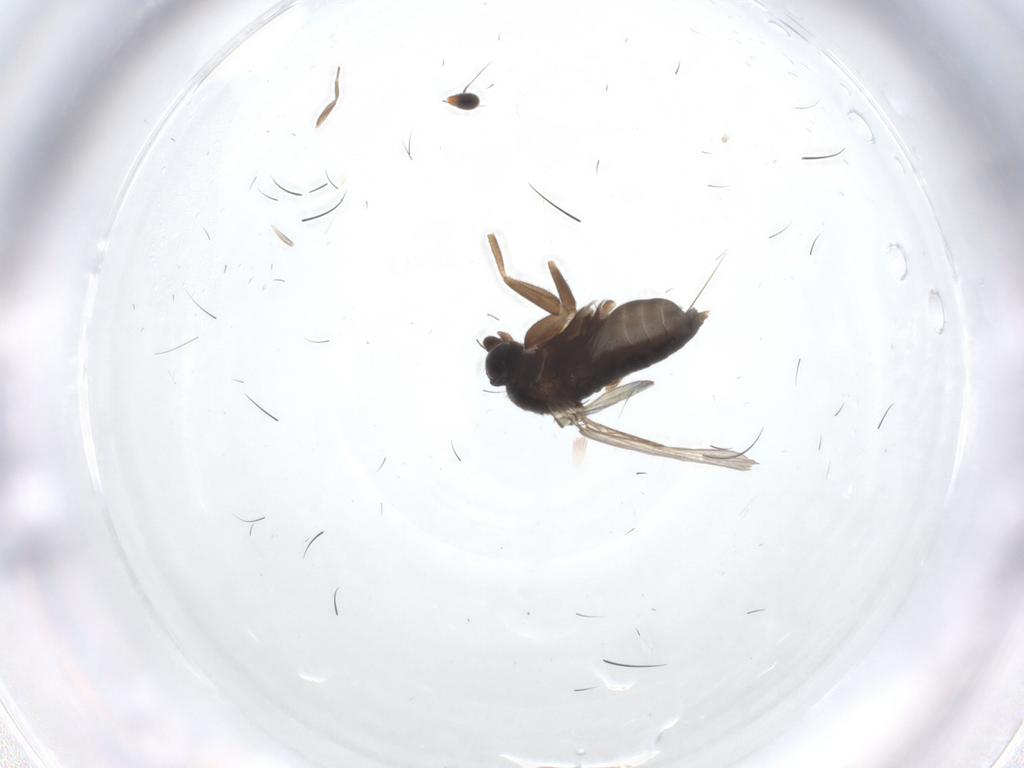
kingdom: Animalia
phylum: Arthropoda
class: Insecta
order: Diptera
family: Phoridae
